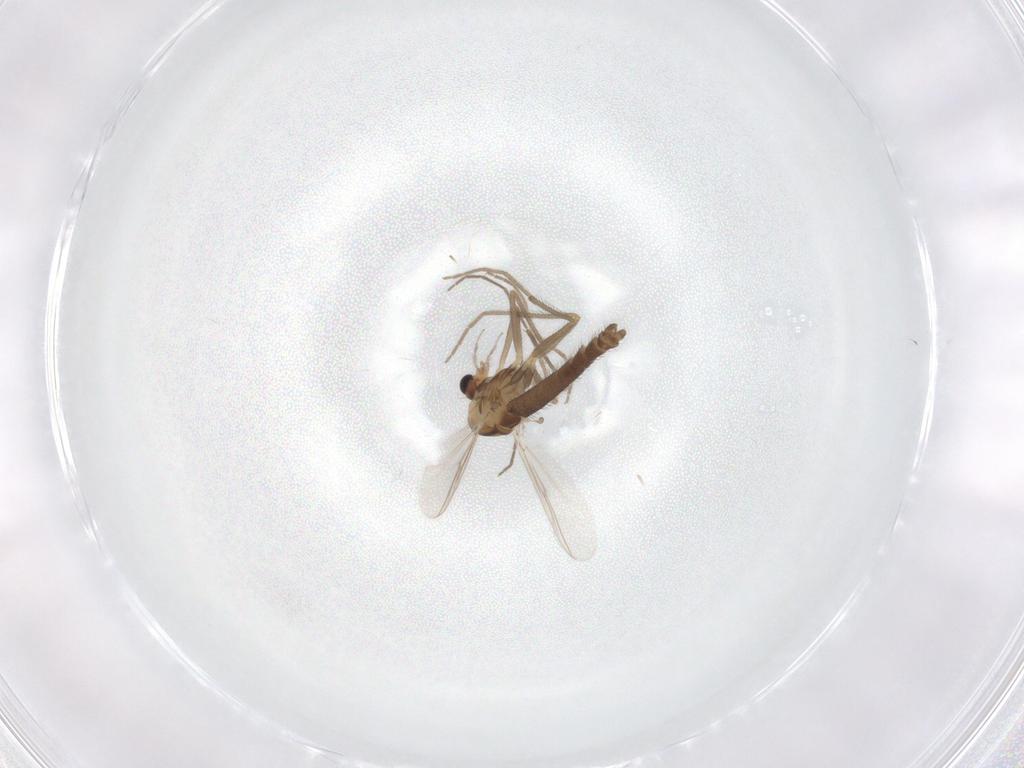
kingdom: Animalia
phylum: Arthropoda
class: Insecta
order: Diptera
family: Chironomidae
